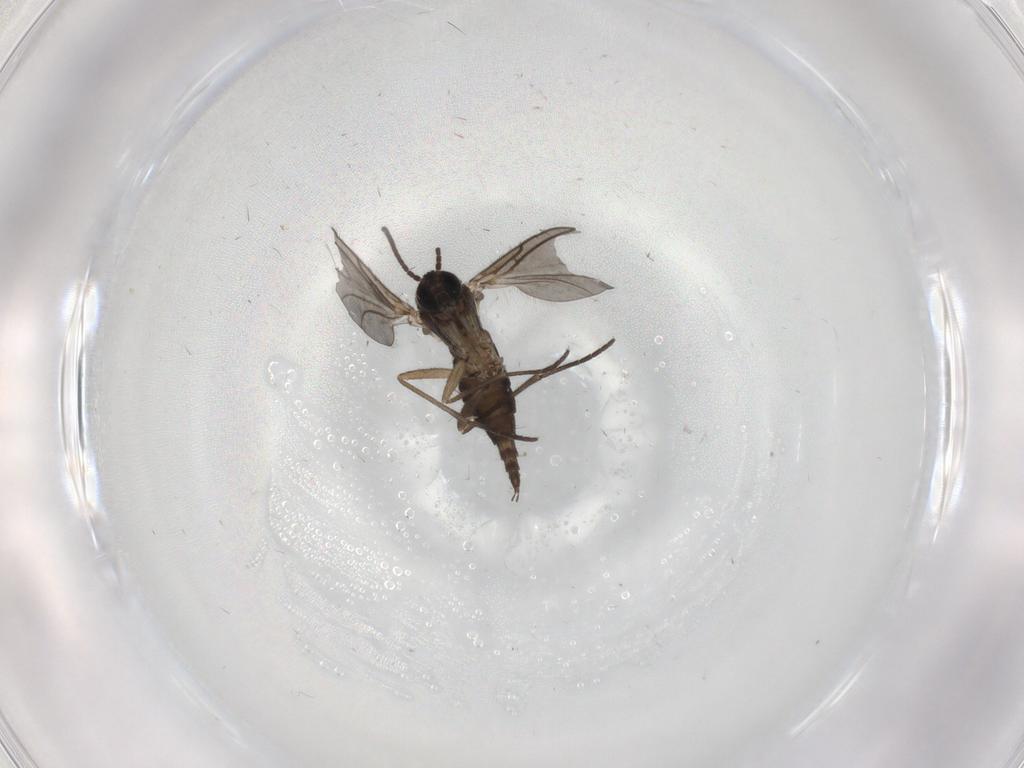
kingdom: Animalia
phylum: Arthropoda
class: Insecta
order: Diptera
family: Sciaridae
